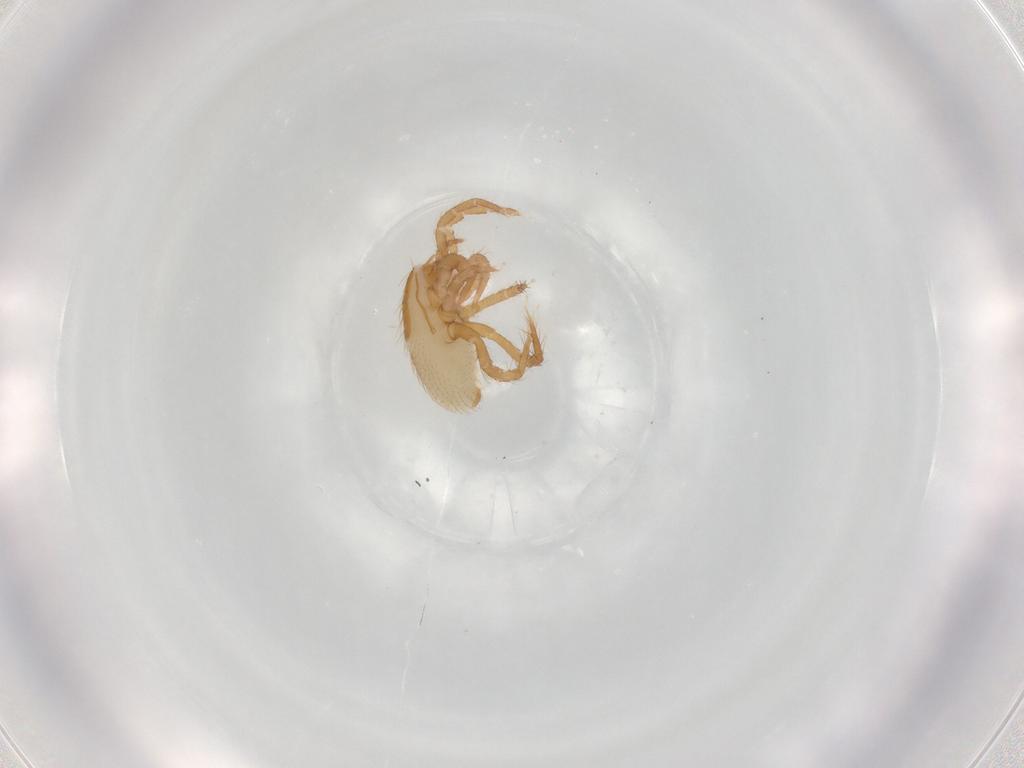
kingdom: Animalia
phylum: Arthropoda
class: Arachnida
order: Mesostigmata
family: Parasitidae
